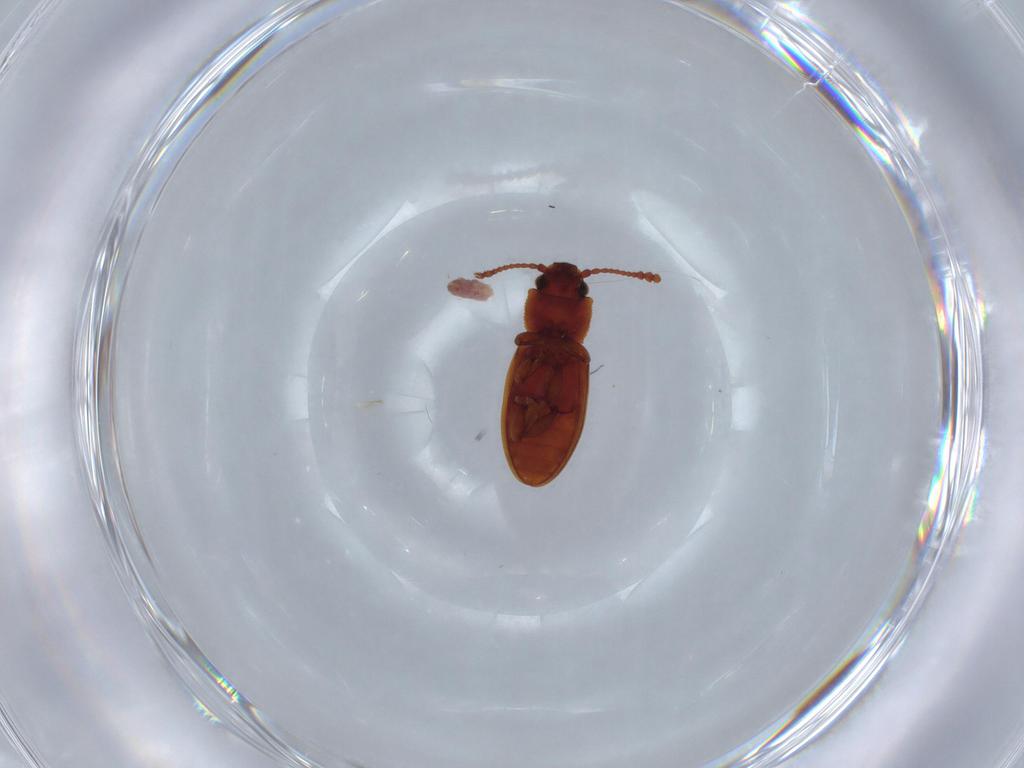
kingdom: Animalia
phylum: Arthropoda
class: Insecta
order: Coleoptera
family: Silvanidae
